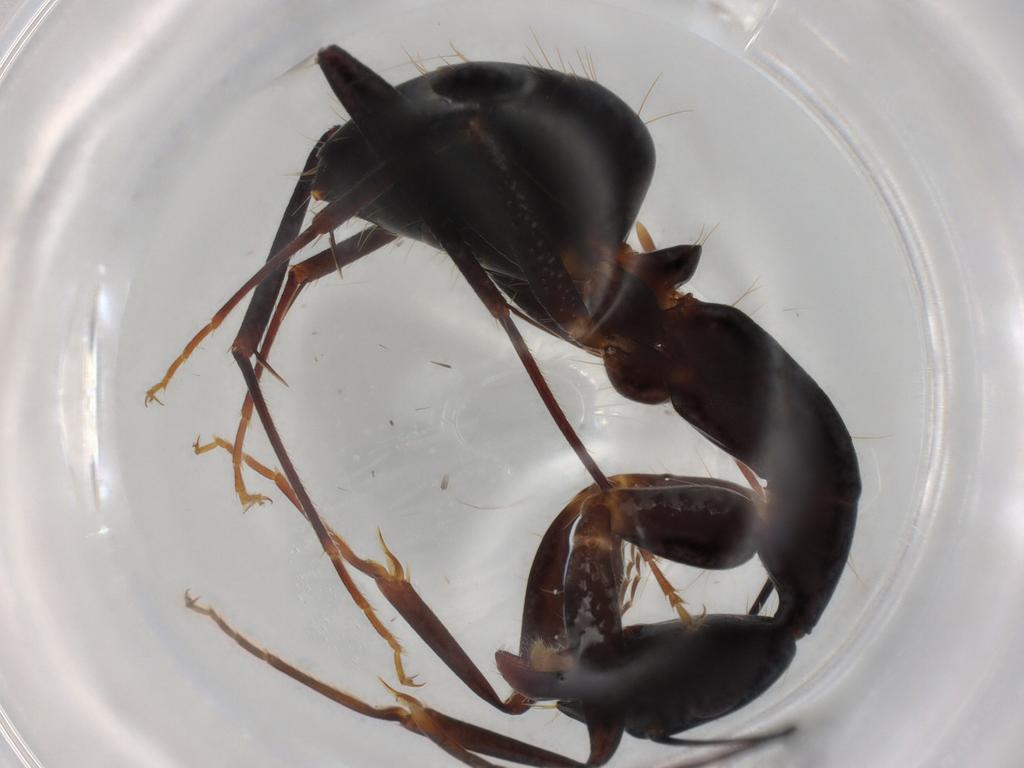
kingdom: Animalia
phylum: Arthropoda
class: Insecta
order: Hymenoptera
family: Formicidae
